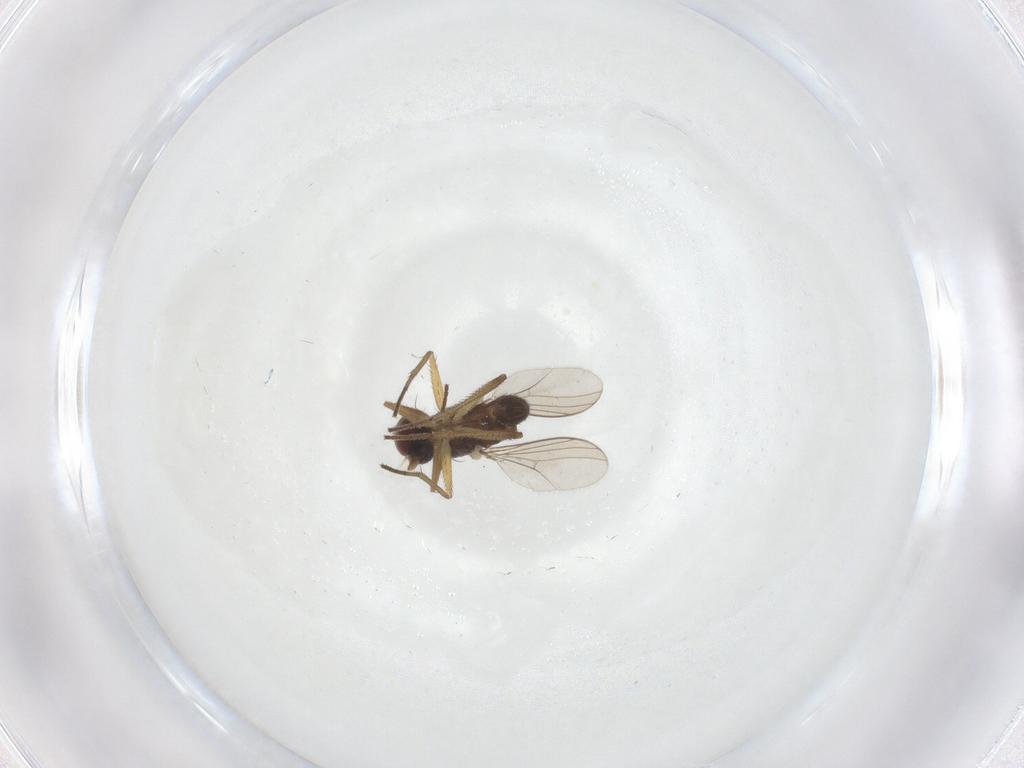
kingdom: Animalia
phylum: Arthropoda
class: Insecta
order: Diptera
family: Dolichopodidae
